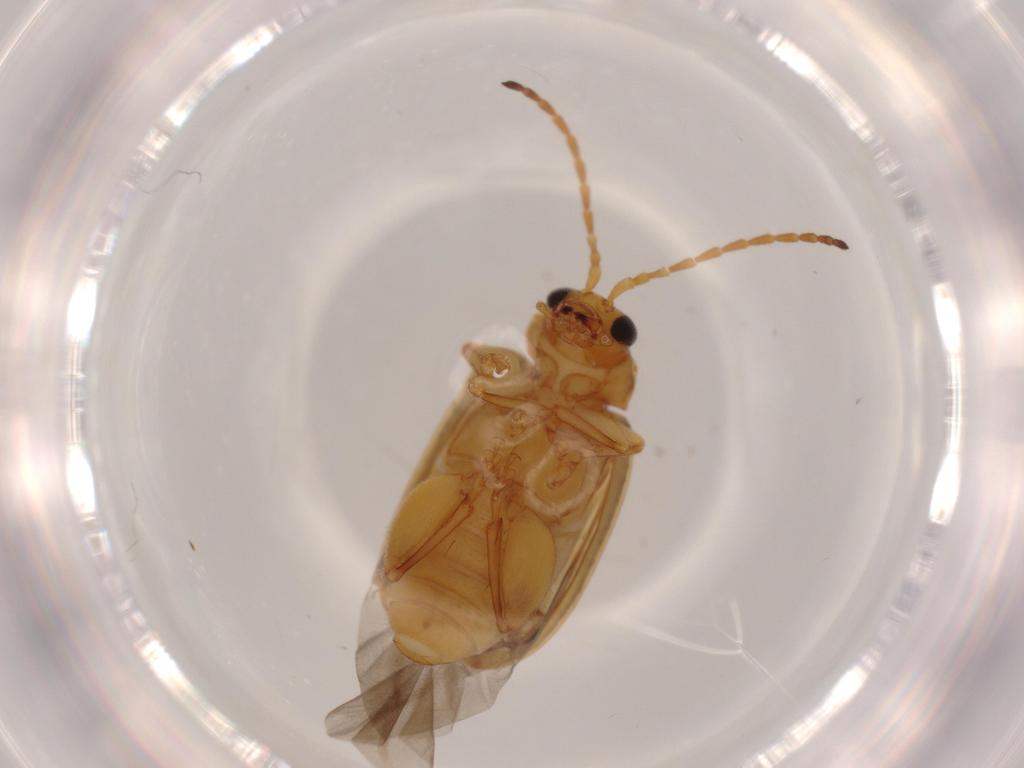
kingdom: Animalia
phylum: Arthropoda
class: Insecta
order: Coleoptera
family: Chrysomelidae
